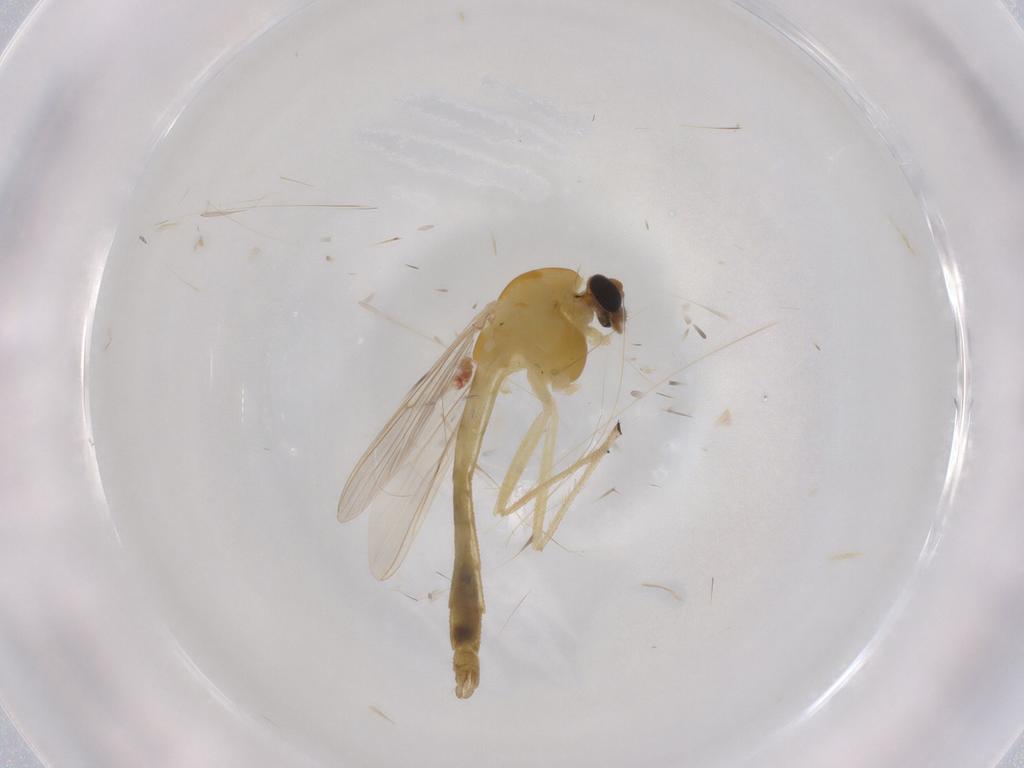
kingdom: Animalia
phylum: Arthropoda
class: Insecta
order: Diptera
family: Chironomidae
